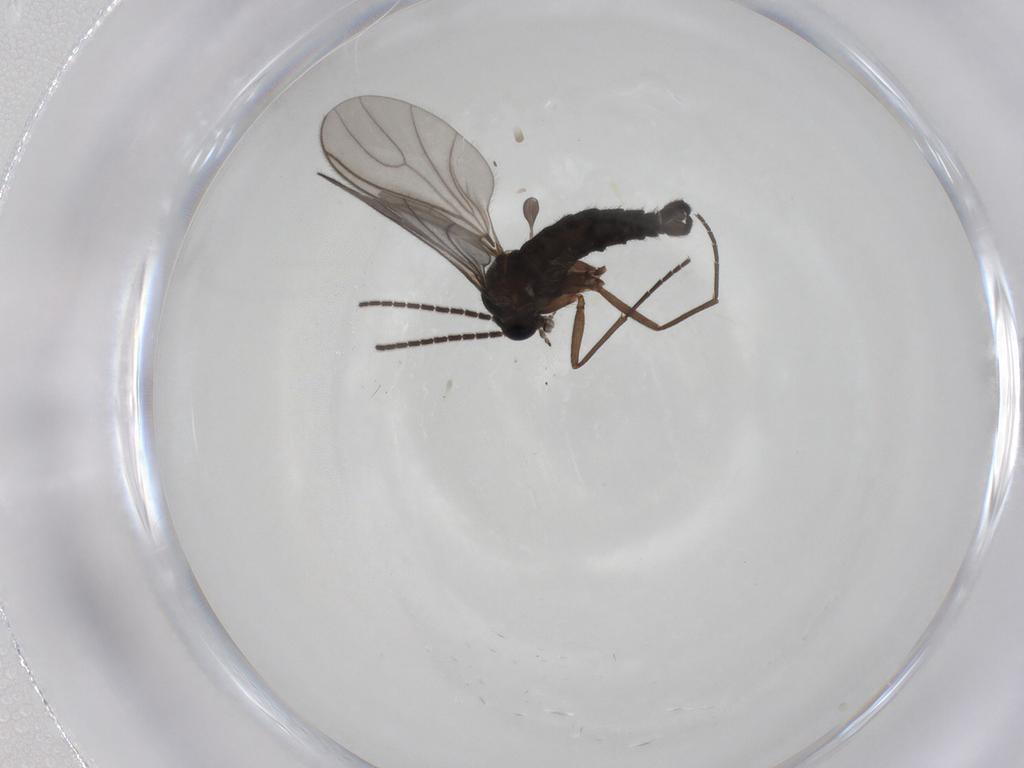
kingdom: Animalia
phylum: Arthropoda
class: Insecta
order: Diptera
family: Sciaridae
